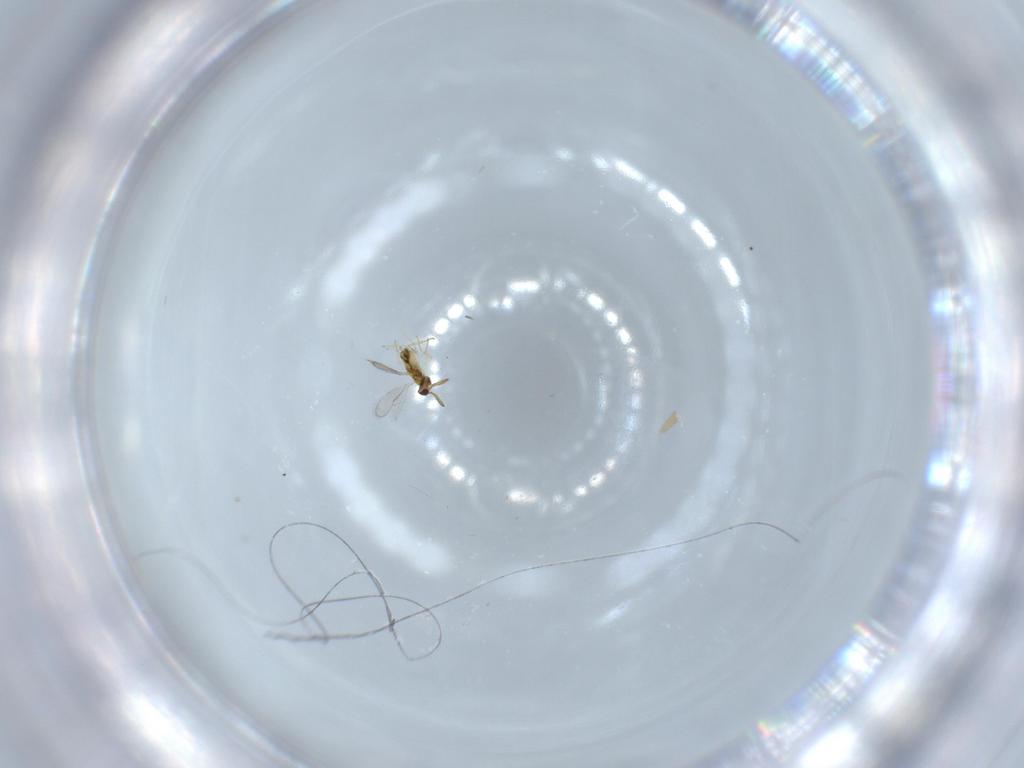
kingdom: Animalia
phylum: Arthropoda
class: Insecta
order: Hymenoptera
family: Aphelinidae
